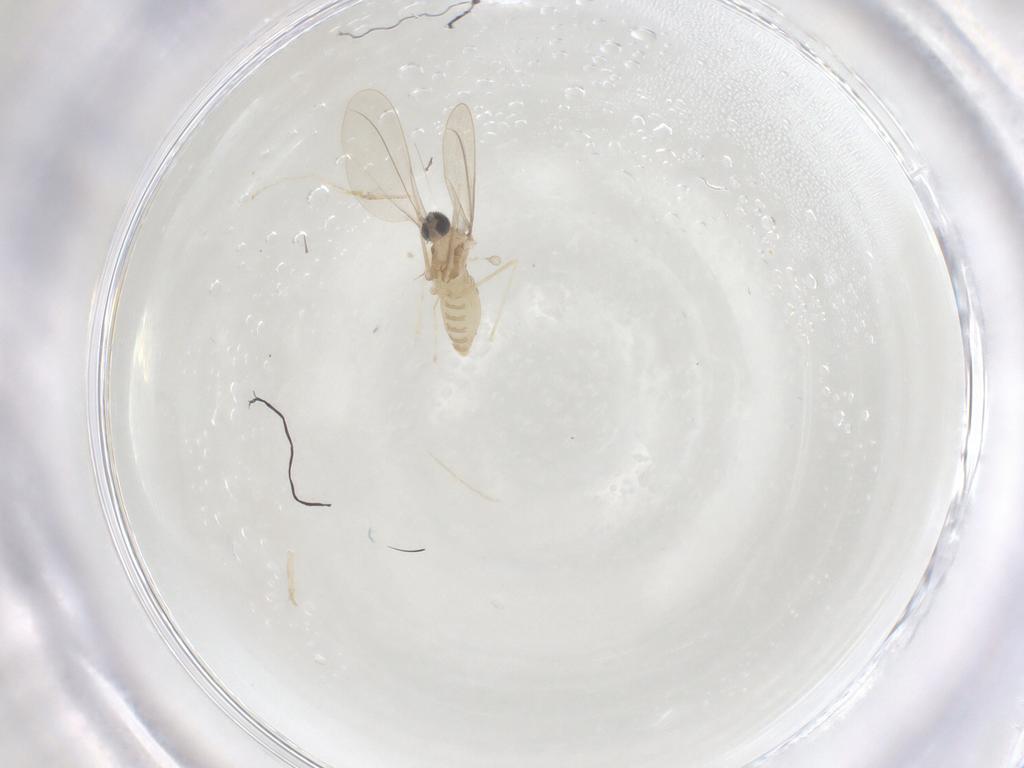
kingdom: Animalia
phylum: Arthropoda
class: Insecta
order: Diptera
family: Cecidomyiidae
